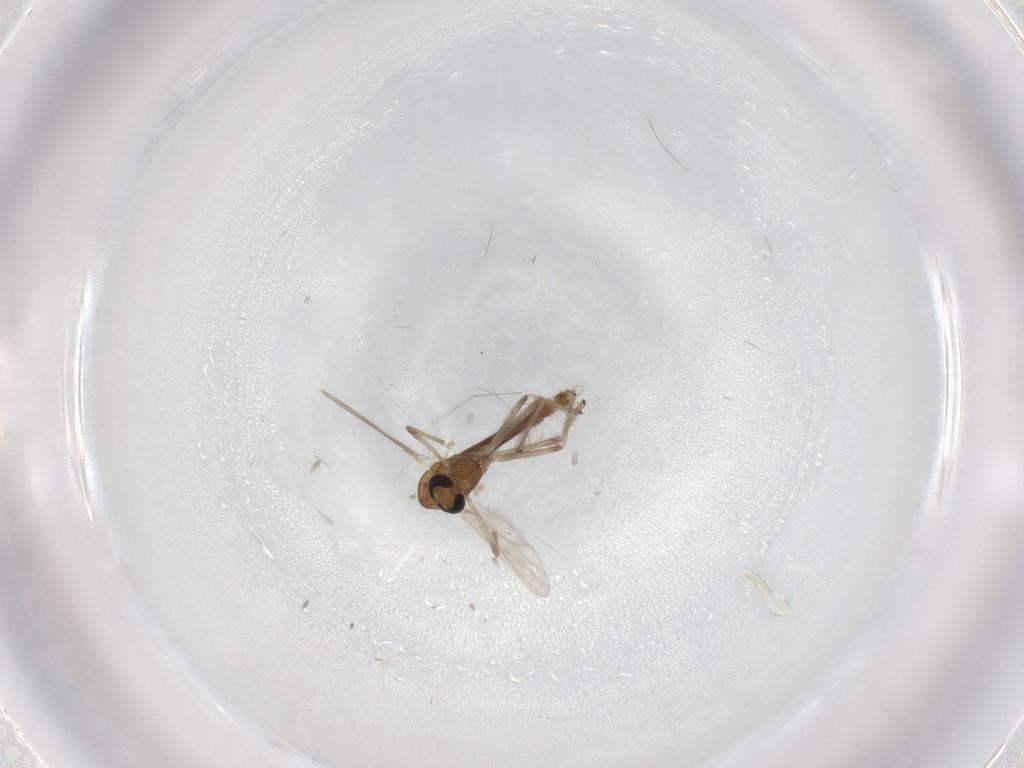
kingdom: Animalia
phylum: Arthropoda
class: Insecta
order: Diptera
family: Chironomidae
